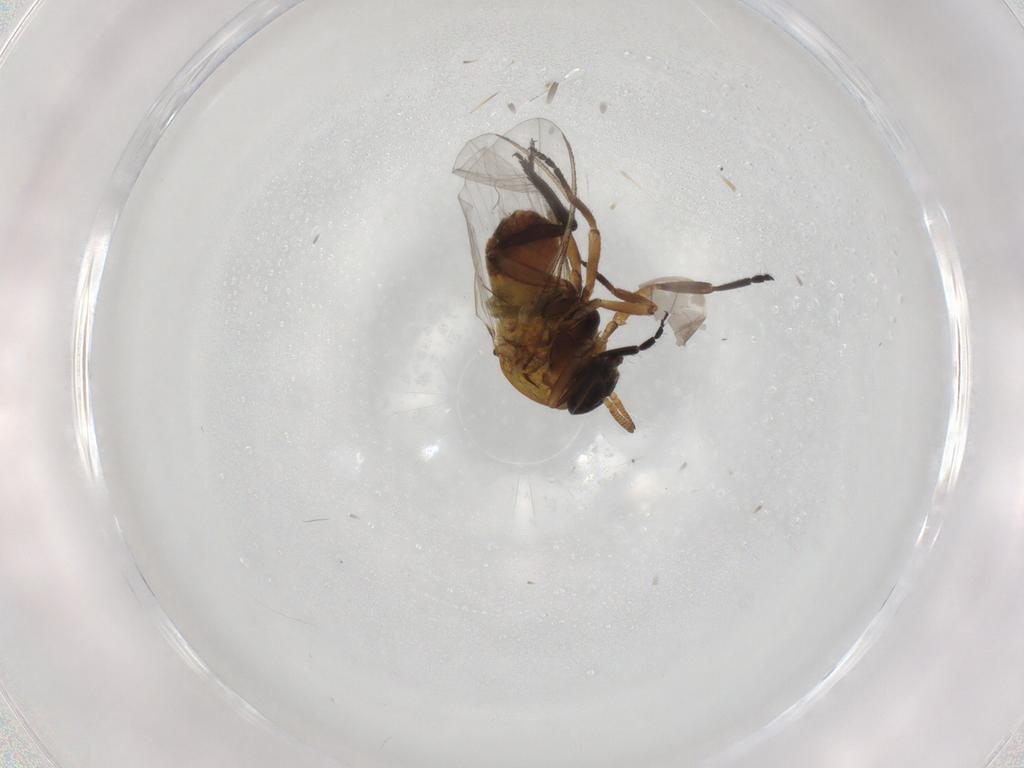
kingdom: Animalia
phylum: Arthropoda
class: Insecta
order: Diptera
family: Simuliidae
